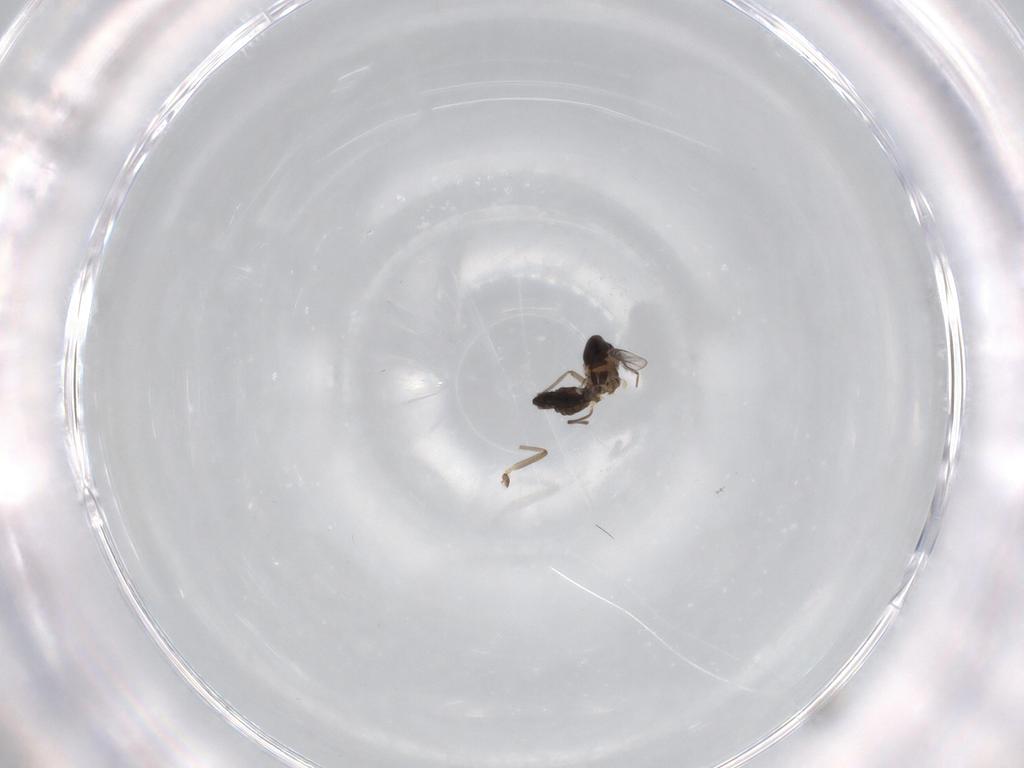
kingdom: Animalia
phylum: Arthropoda
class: Insecta
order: Diptera
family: Chironomidae
